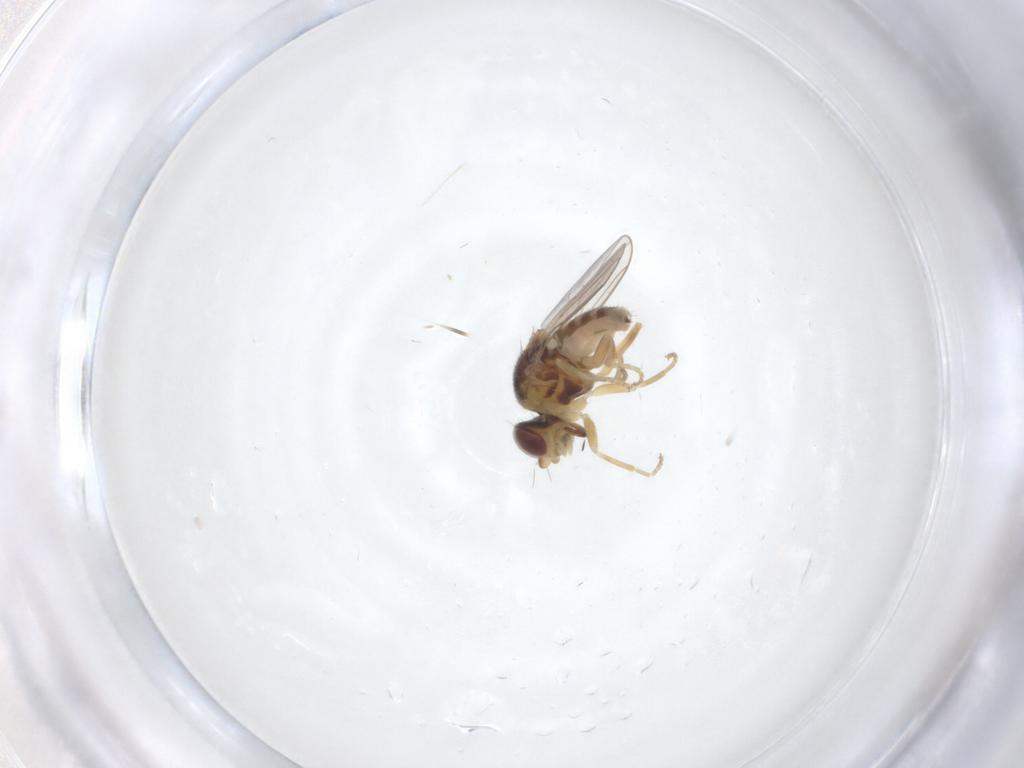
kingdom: Animalia
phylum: Arthropoda
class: Insecta
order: Diptera
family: Chloropidae
